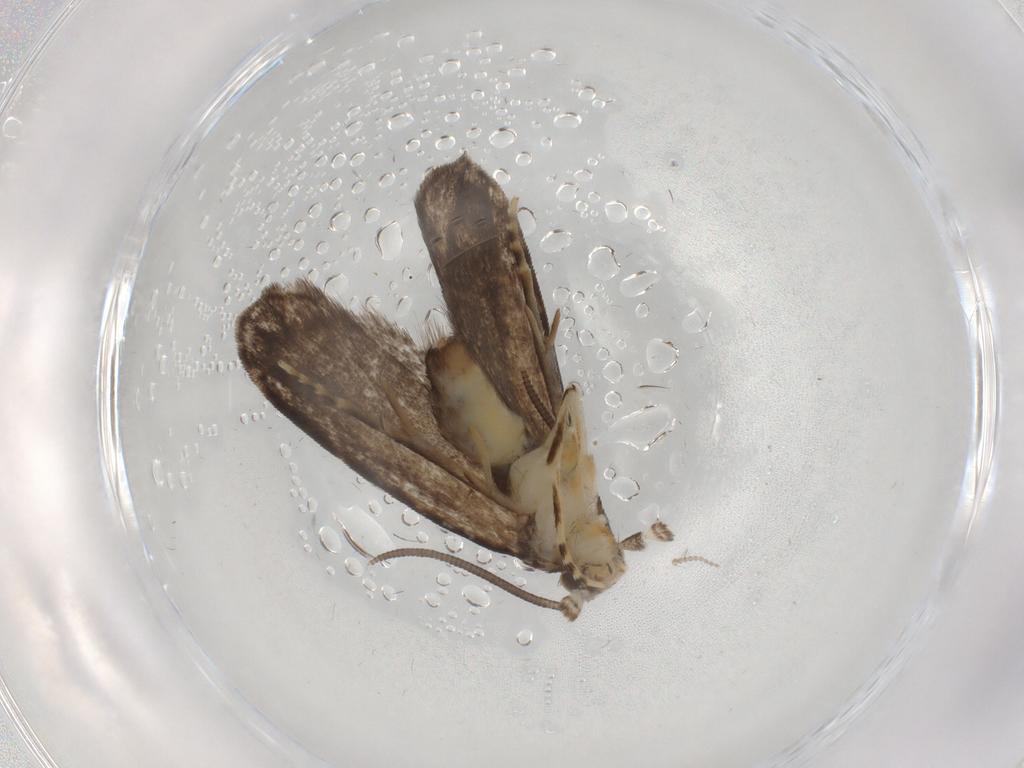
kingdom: Animalia
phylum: Arthropoda
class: Insecta
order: Lepidoptera
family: Dryadaulidae
